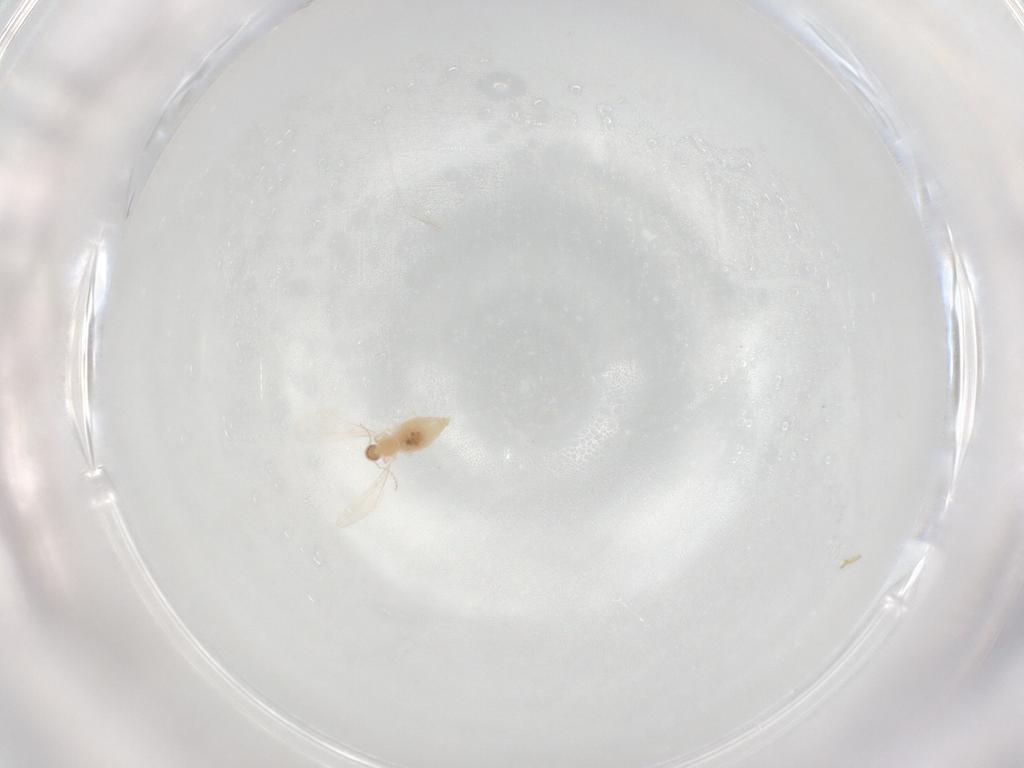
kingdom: Animalia
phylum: Arthropoda
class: Insecta
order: Diptera
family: Cecidomyiidae
